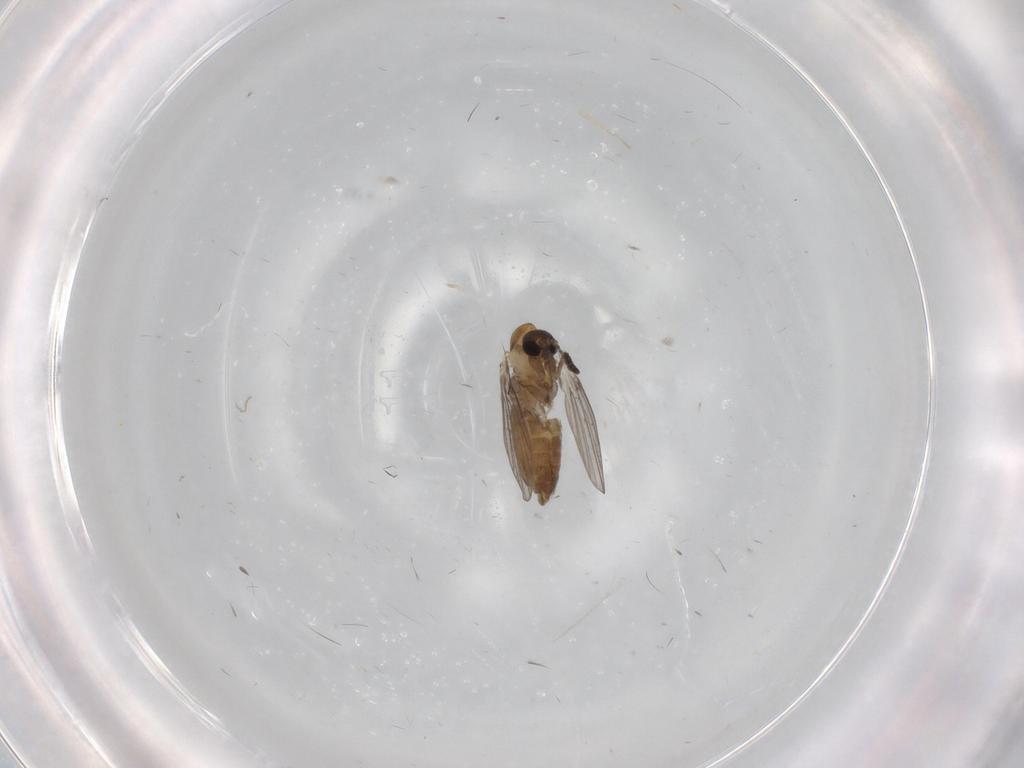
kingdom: Animalia
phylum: Arthropoda
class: Insecta
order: Diptera
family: Psychodidae
